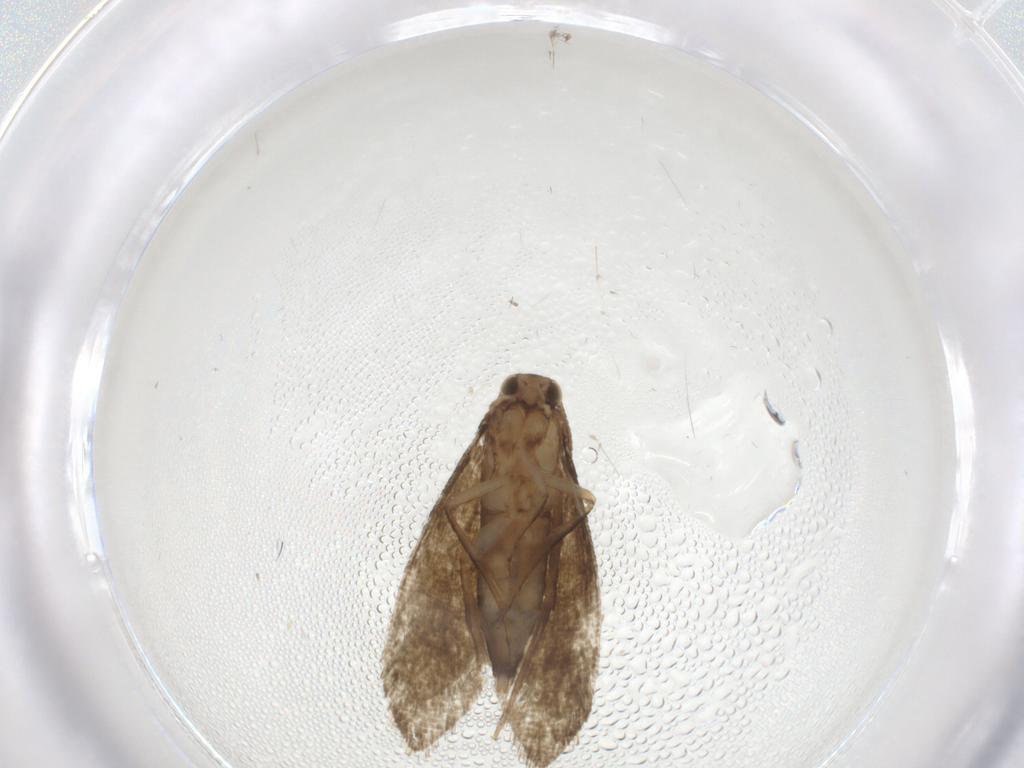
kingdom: Animalia
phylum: Arthropoda
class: Insecta
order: Lepidoptera
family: Tineidae
